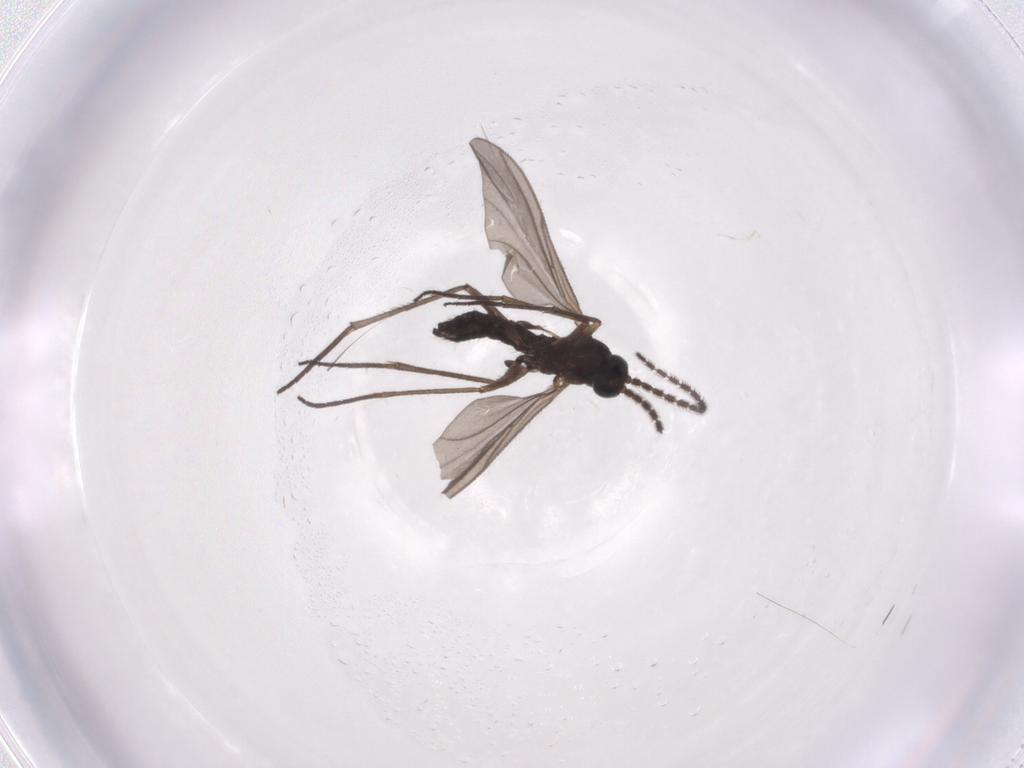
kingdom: Animalia
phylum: Arthropoda
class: Insecta
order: Diptera
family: Sciaridae
